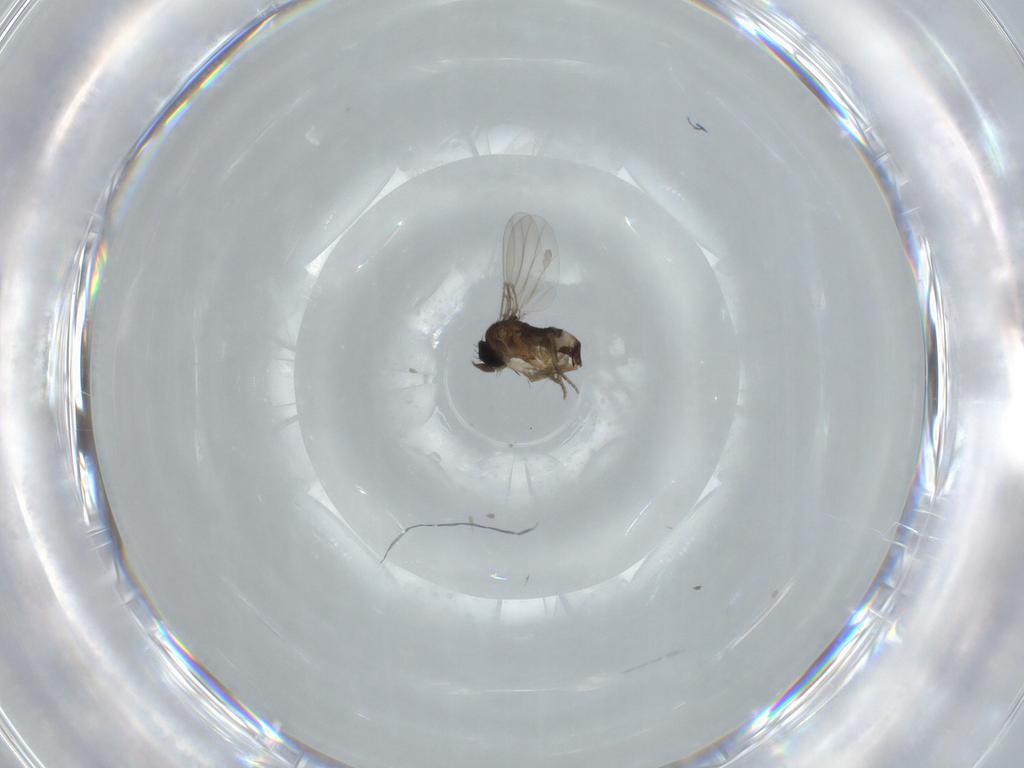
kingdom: Animalia
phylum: Arthropoda
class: Insecta
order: Diptera
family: Phoridae
